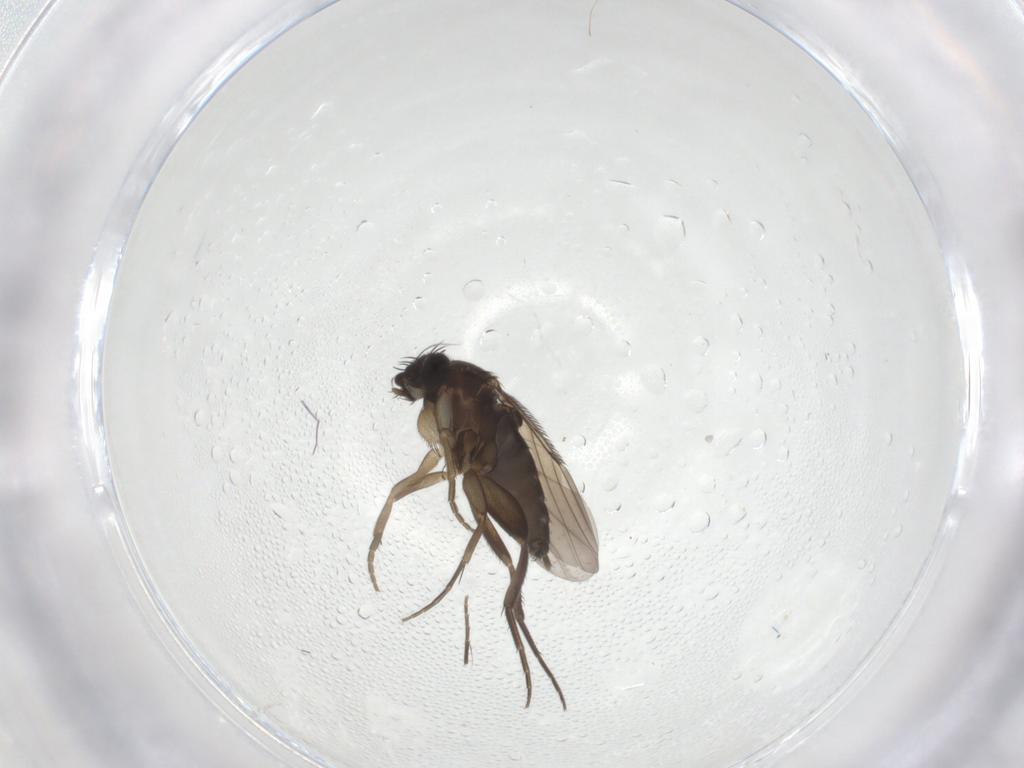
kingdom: Animalia
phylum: Arthropoda
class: Insecta
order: Diptera
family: Phoridae
